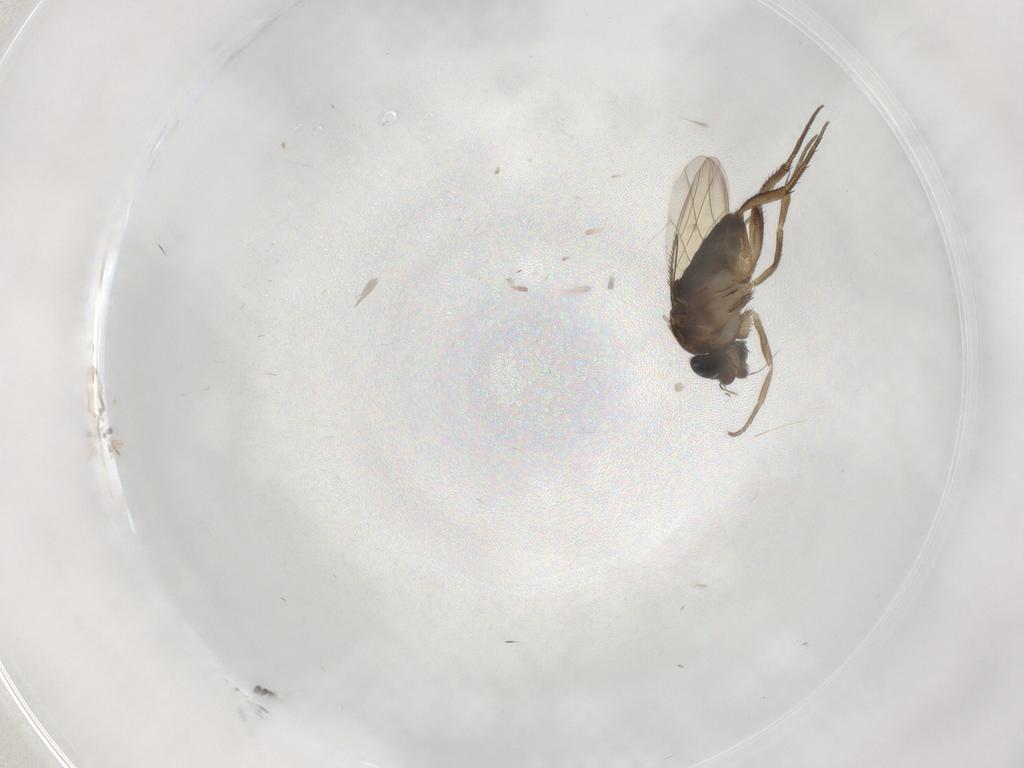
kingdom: Animalia
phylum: Arthropoda
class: Insecta
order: Diptera
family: Phoridae
